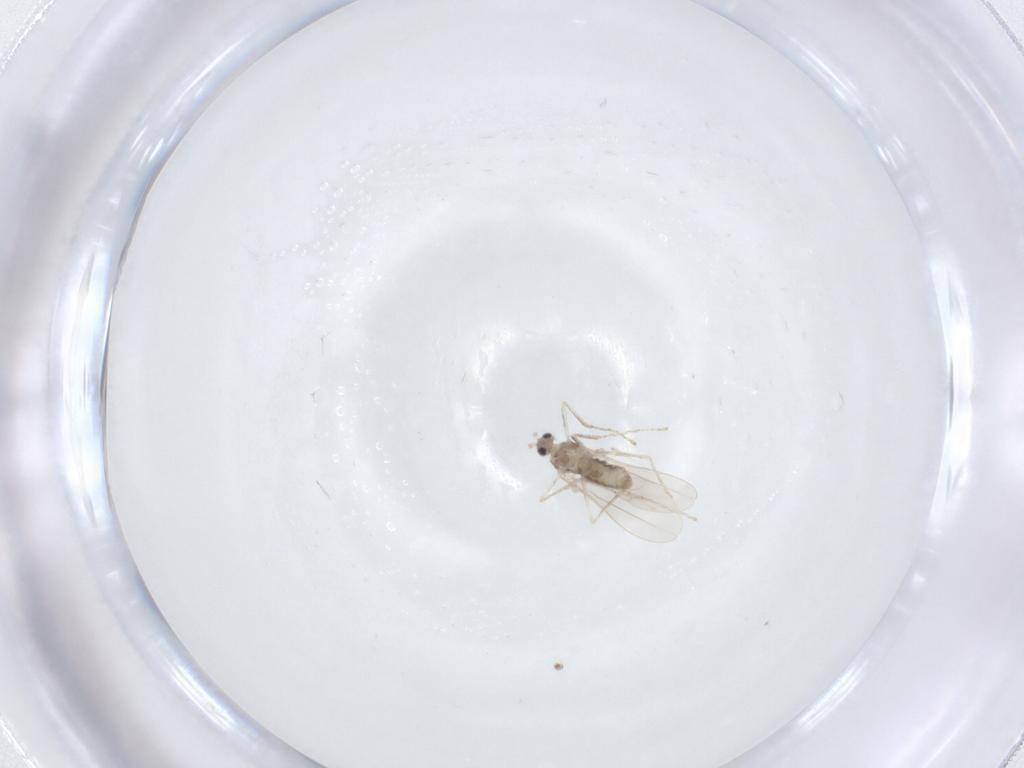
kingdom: Animalia
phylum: Arthropoda
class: Insecta
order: Diptera
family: Cecidomyiidae
